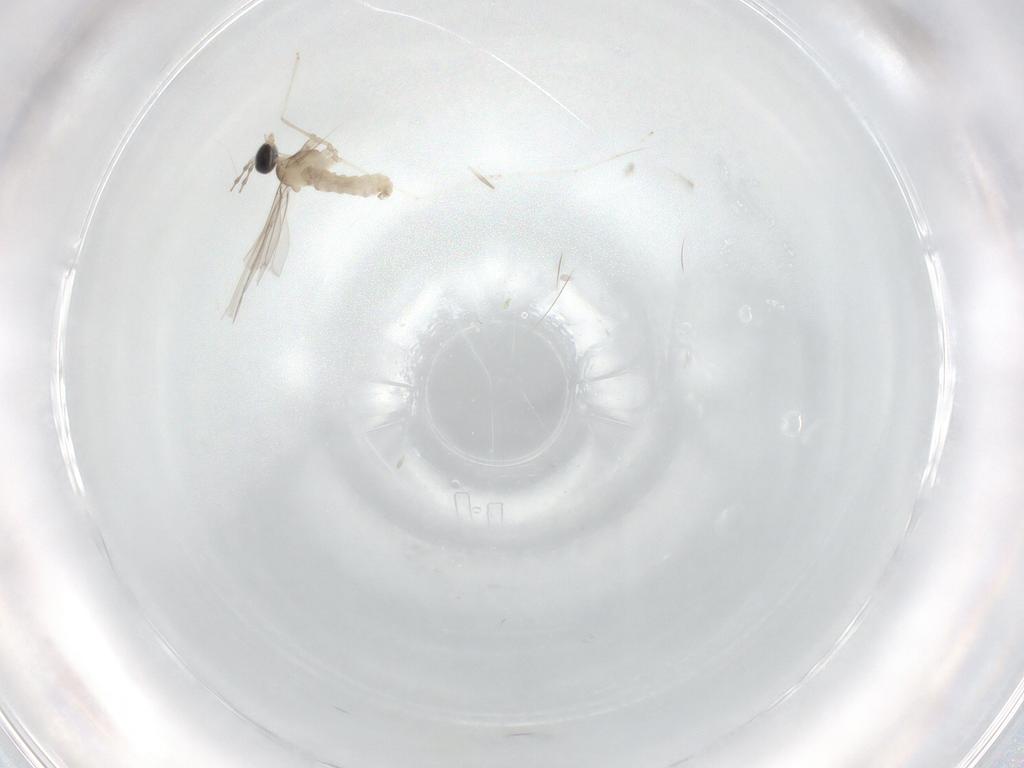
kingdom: Animalia
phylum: Arthropoda
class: Insecta
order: Diptera
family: Cecidomyiidae
